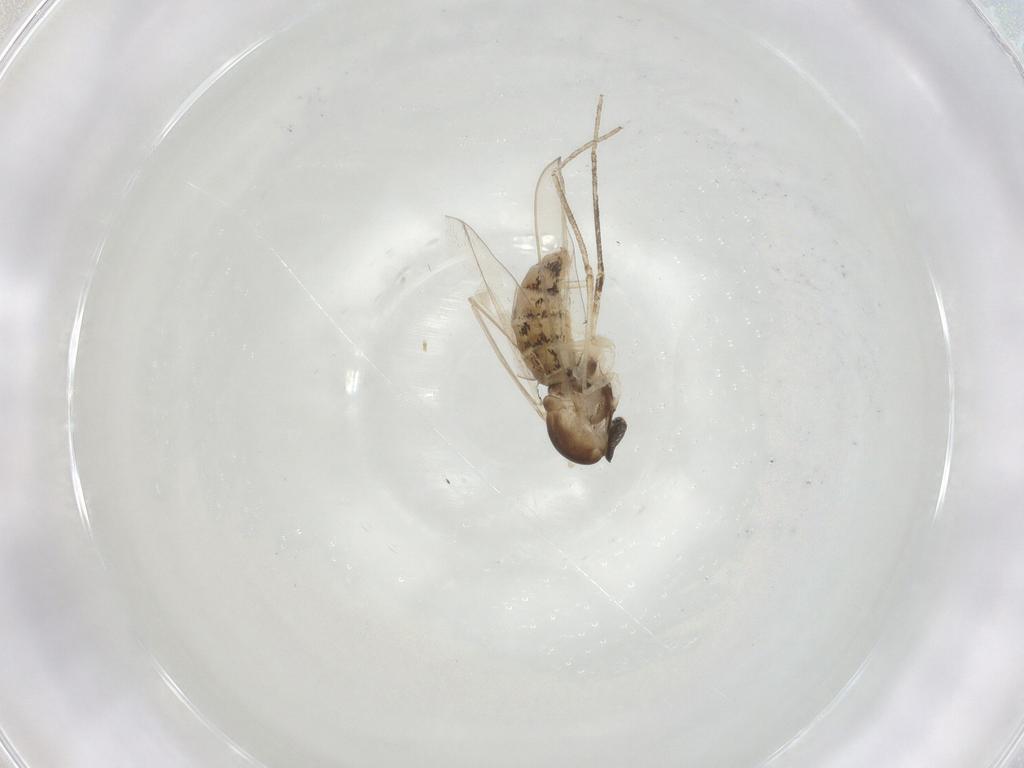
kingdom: Animalia
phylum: Arthropoda
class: Insecta
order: Diptera
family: Cecidomyiidae
